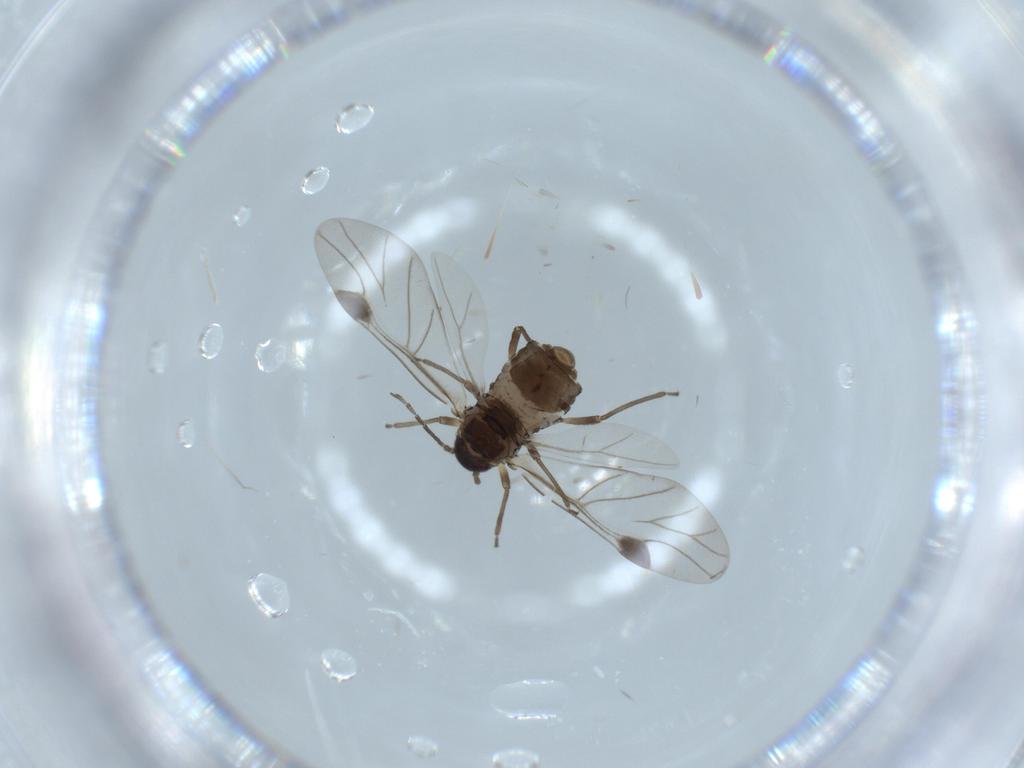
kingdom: Animalia
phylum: Arthropoda
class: Insecta
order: Hemiptera
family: Aphididae
